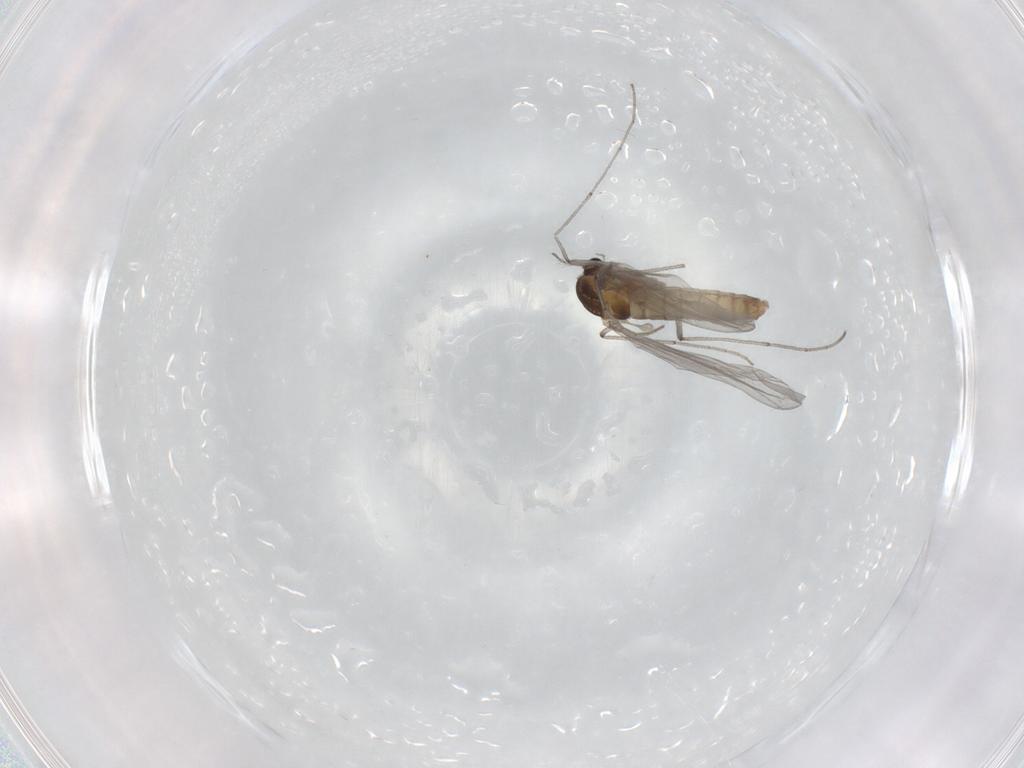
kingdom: Animalia
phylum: Arthropoda
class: Insecta
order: Diptera
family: Chironomidae
